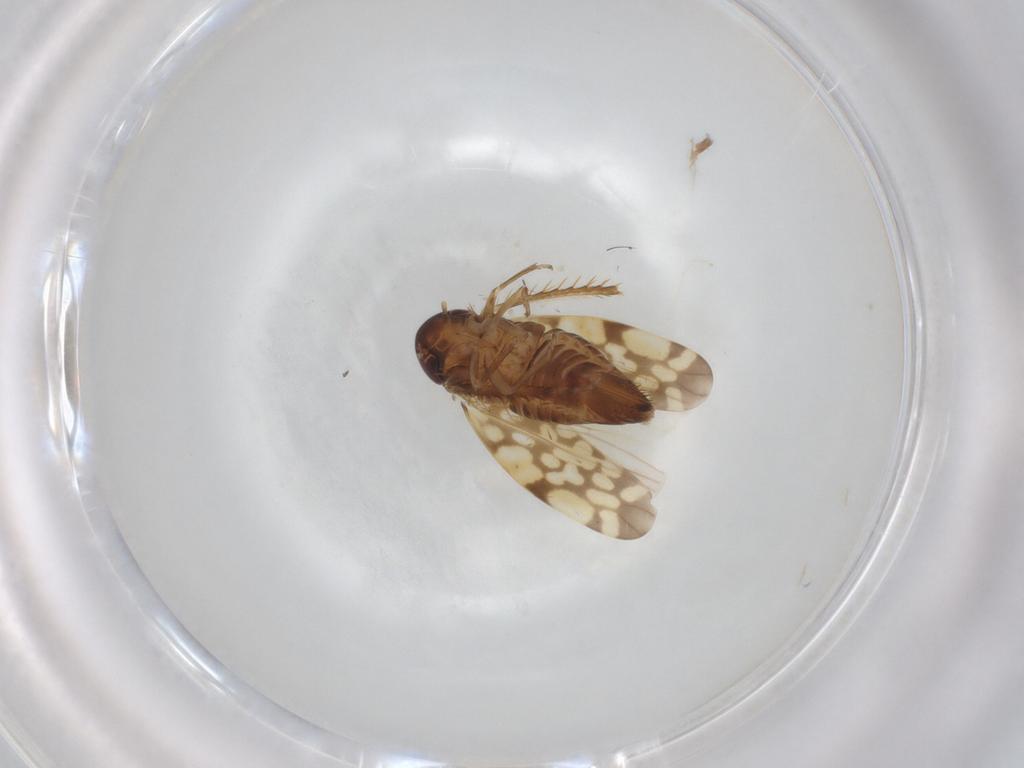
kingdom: Animalia
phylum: Arthropoda
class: Insecta
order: Hemiptera
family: Cicadellidae
